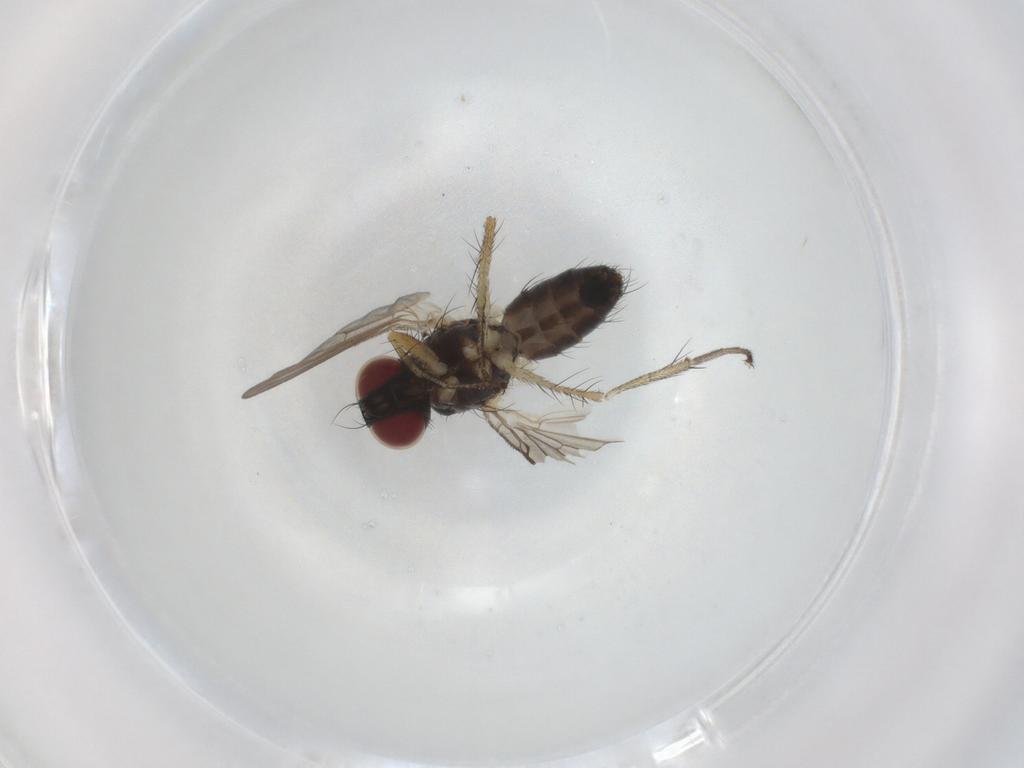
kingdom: Animalia
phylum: Arthropoda
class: Insecta
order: Diptera
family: Muscidae
